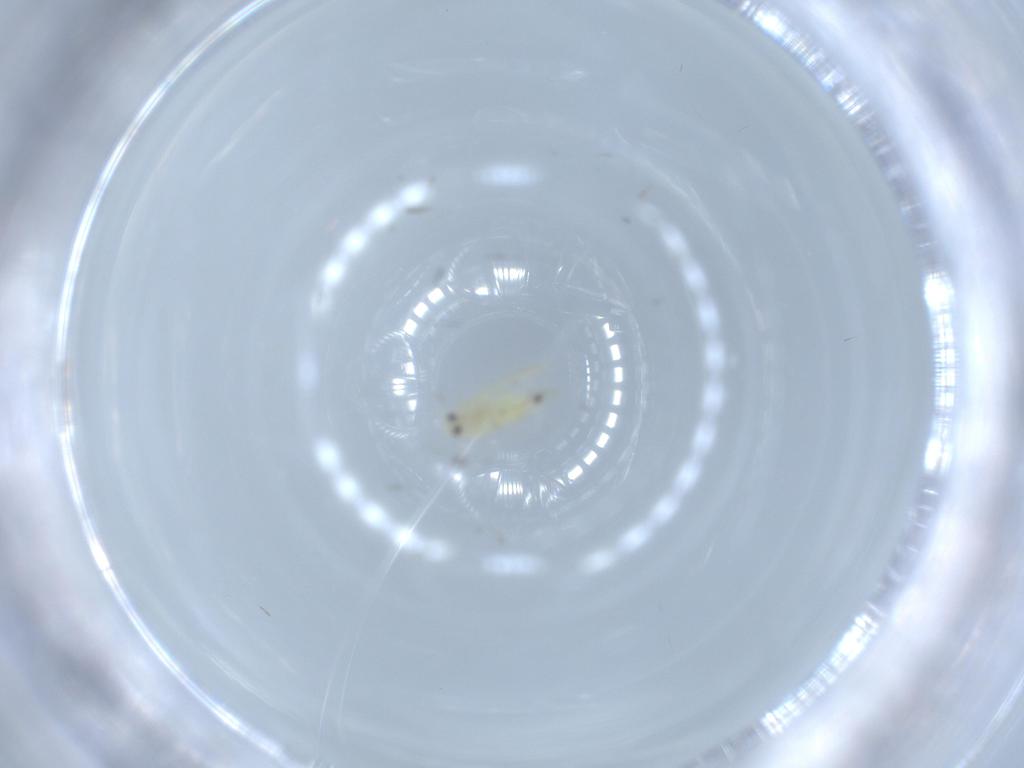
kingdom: Animalia
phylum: Arthropoda
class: Insecta
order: Hemiptera
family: Aleyrodidae
